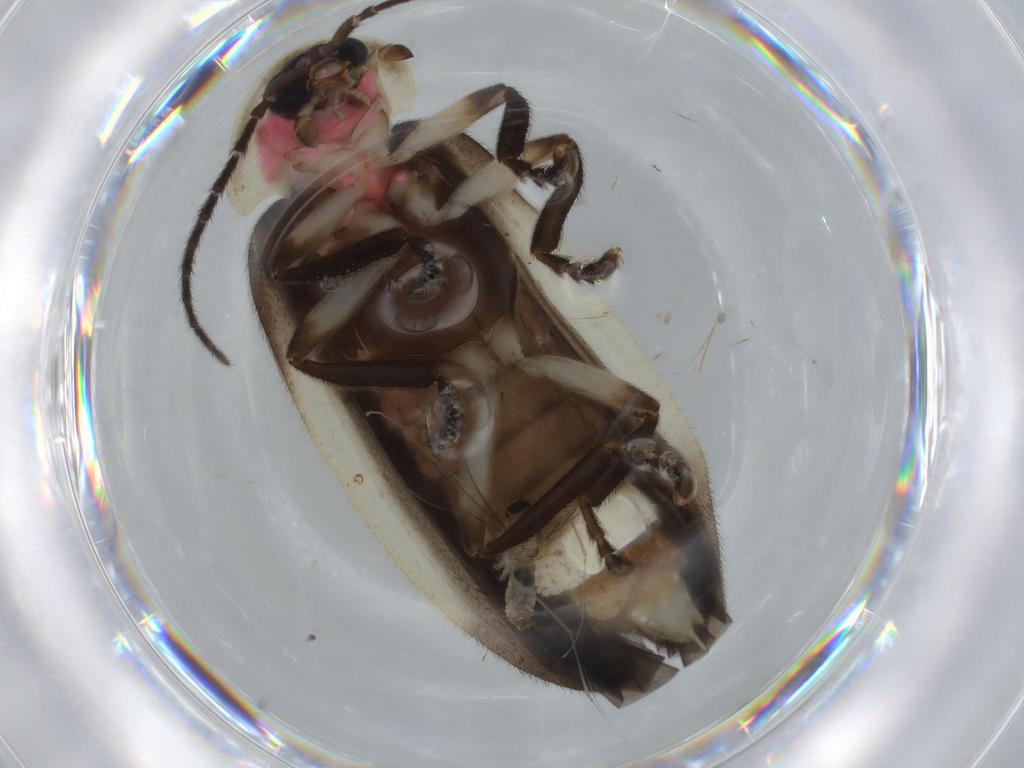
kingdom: Animalia
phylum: Arthropoda
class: Insecta
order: Coleoptera
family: Lampyridae
